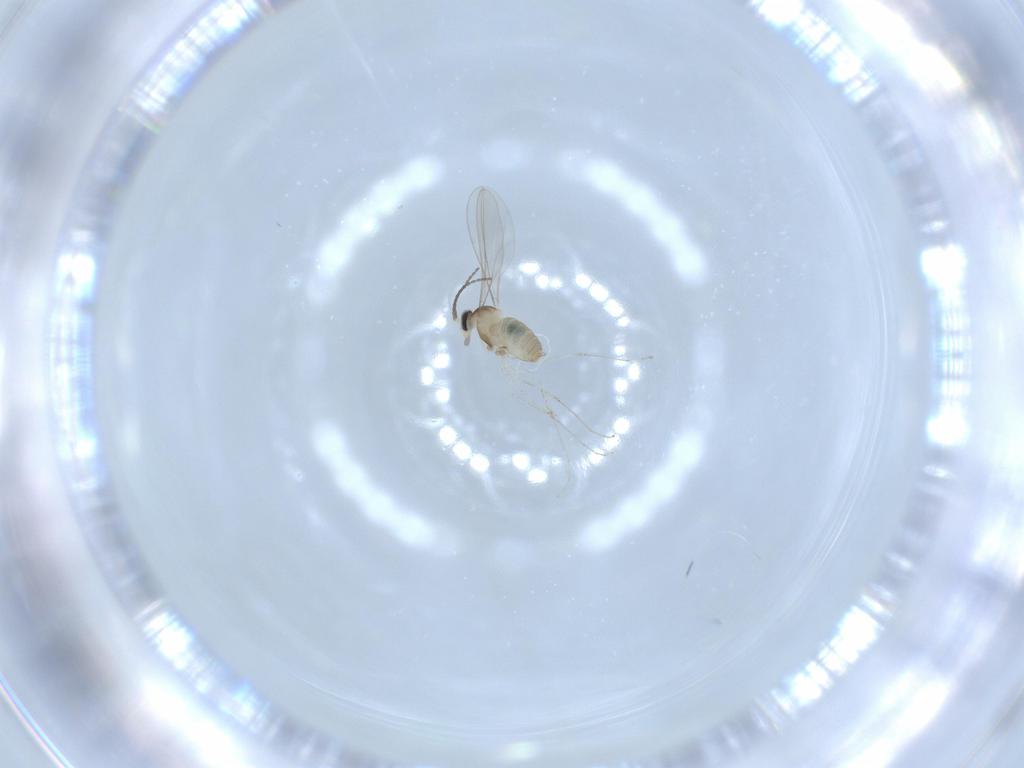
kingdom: Animalia
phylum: Arthropoda
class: Insecta
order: Diptera
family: Cecidomyiidae
